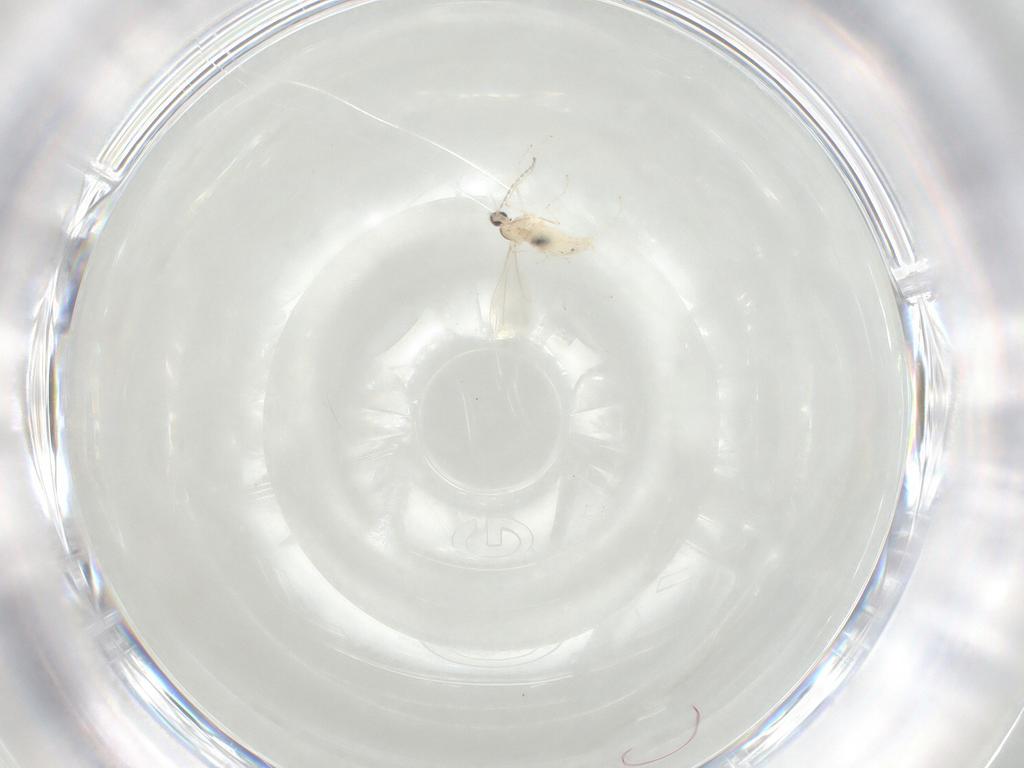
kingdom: Animalia
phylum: Arthropoda
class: Insecta
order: Diptera
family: Cecidomyiidae
